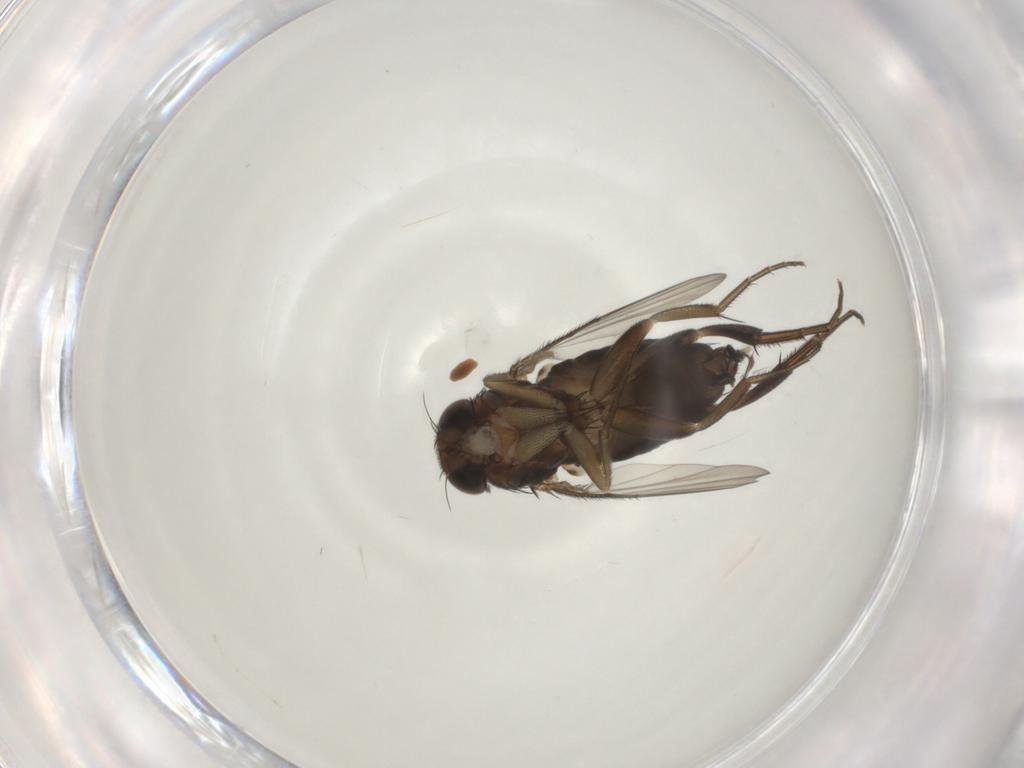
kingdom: Animalia
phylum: Arthropoda
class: Insecta
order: Diptera
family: Phoridae
